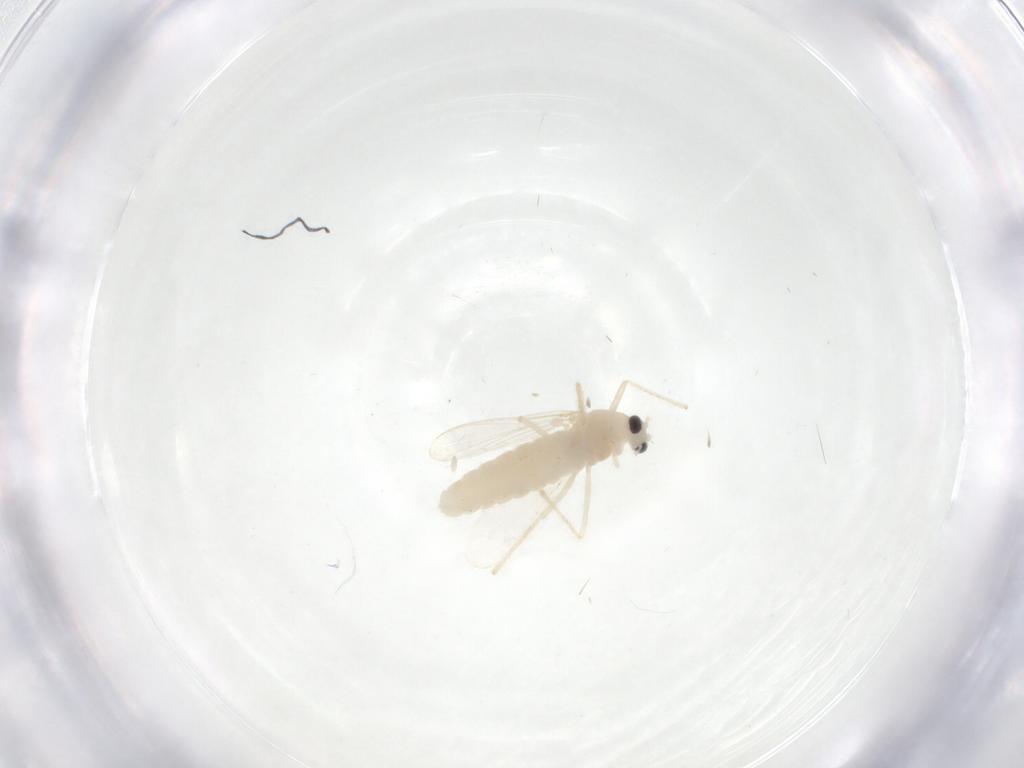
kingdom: Animalia
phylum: Arthropoda
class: Insecta
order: Diptera
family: Chironomidae
